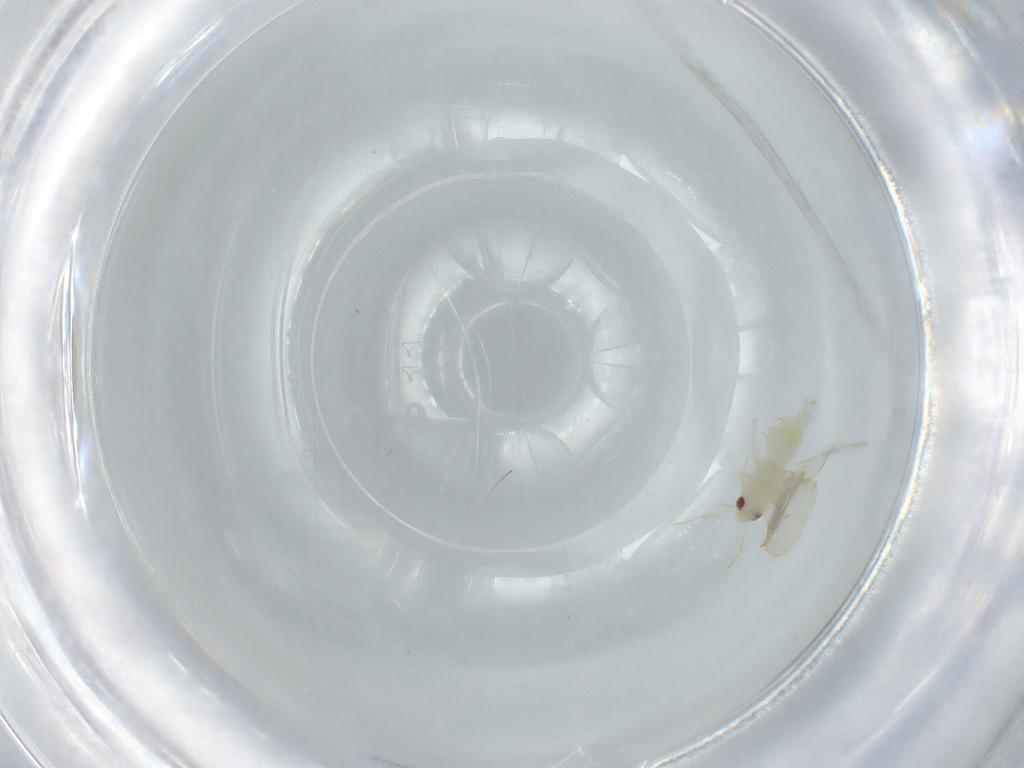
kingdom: Animalia
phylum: Arthropoda
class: Insecta
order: Hemiptera
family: Aleyrodidae
